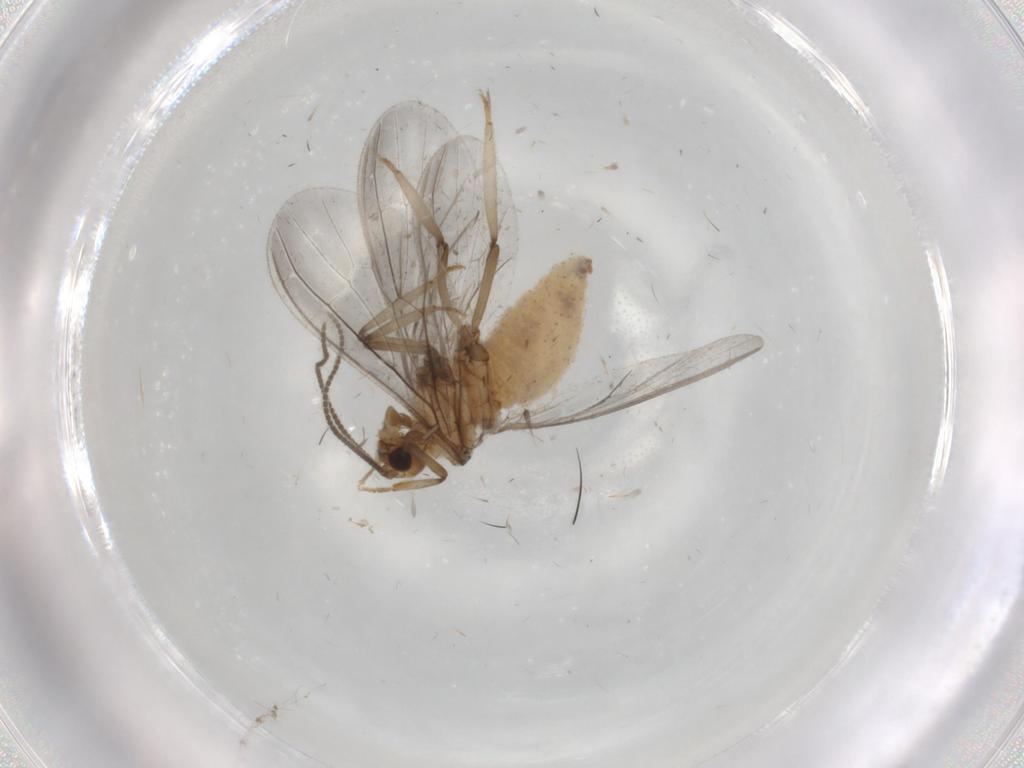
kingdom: Animalia
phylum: Arthropoda
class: Insecta
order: Neuroptera
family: Coniopterygidae
